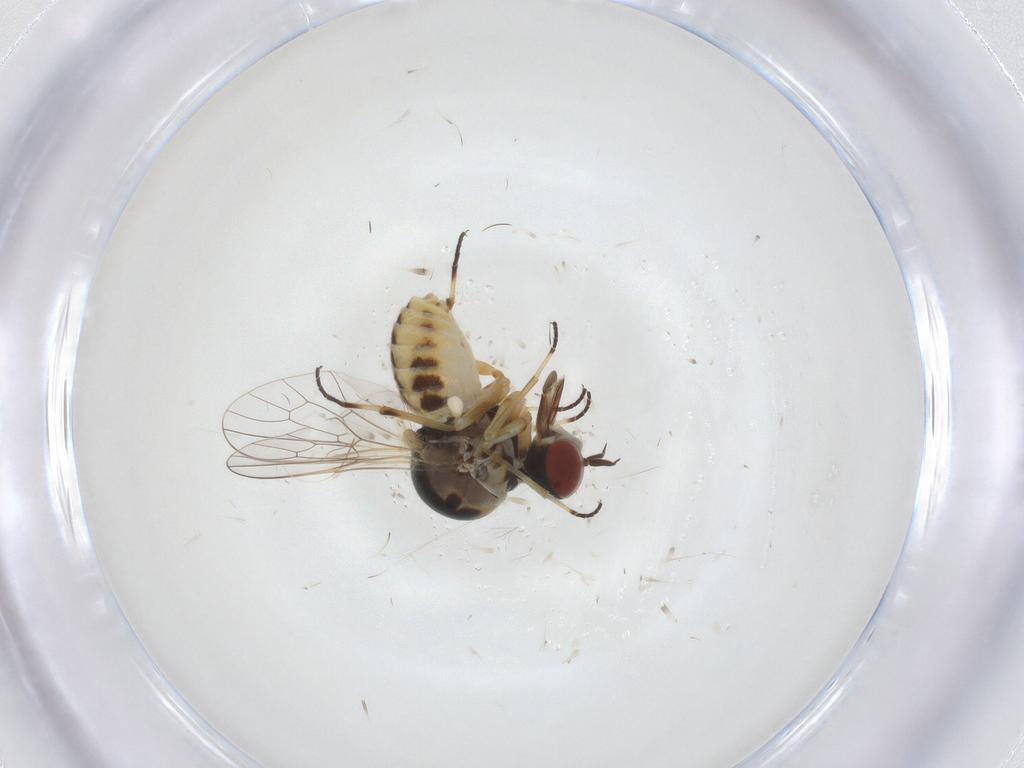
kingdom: Animalia
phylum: Arthropoda
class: Insecta
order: Diptera
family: Mythicomyiidae
